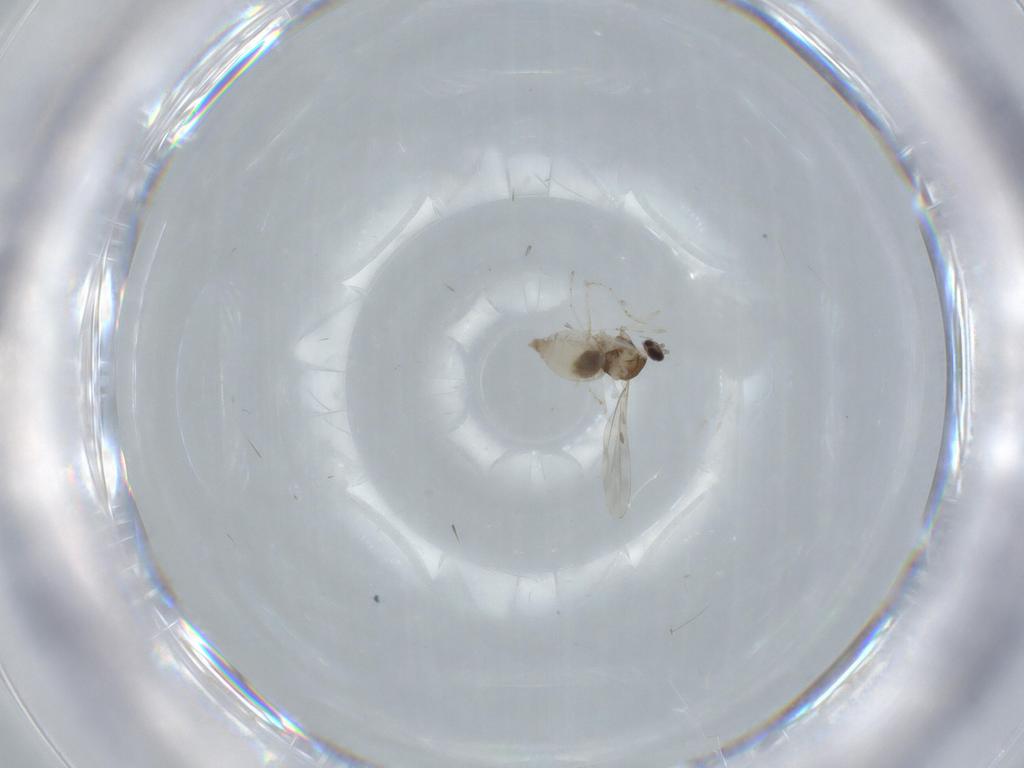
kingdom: Animalia
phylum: Arthropoda
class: Insecta
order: Diptera
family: Cecidomyiidae
